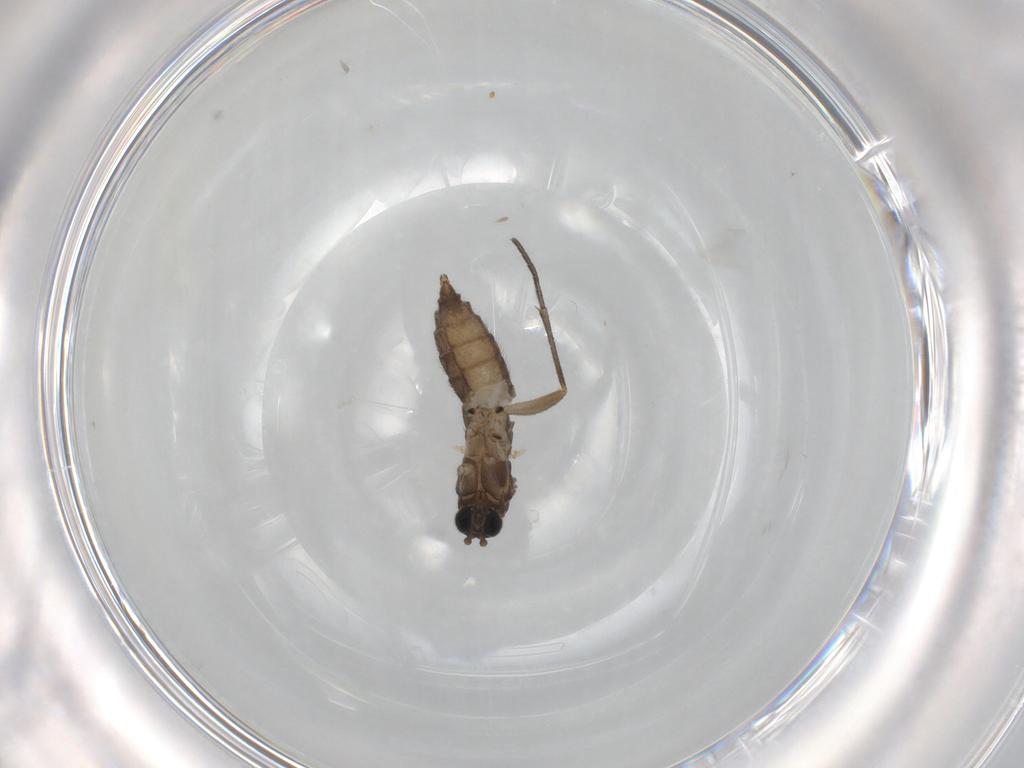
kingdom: Animalia
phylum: Arthropoda
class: Insecta
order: Diptera
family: Sciaridae
